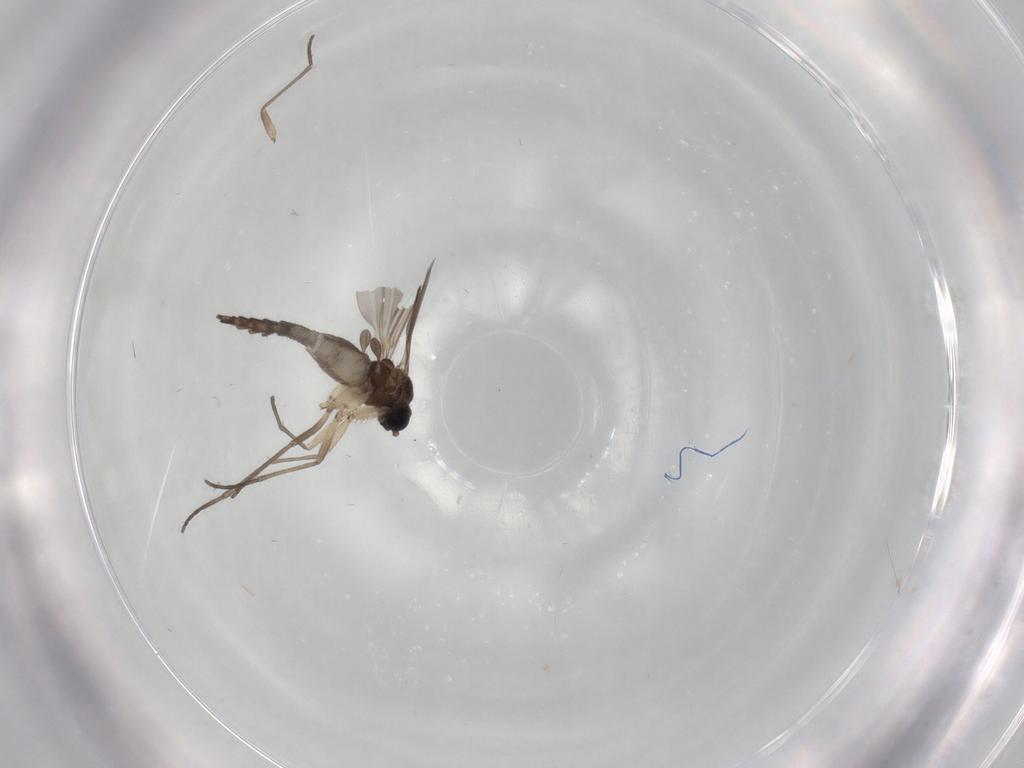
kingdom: Animalia
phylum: Arthropoda
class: Insecta
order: Diptera
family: Sciaridae
